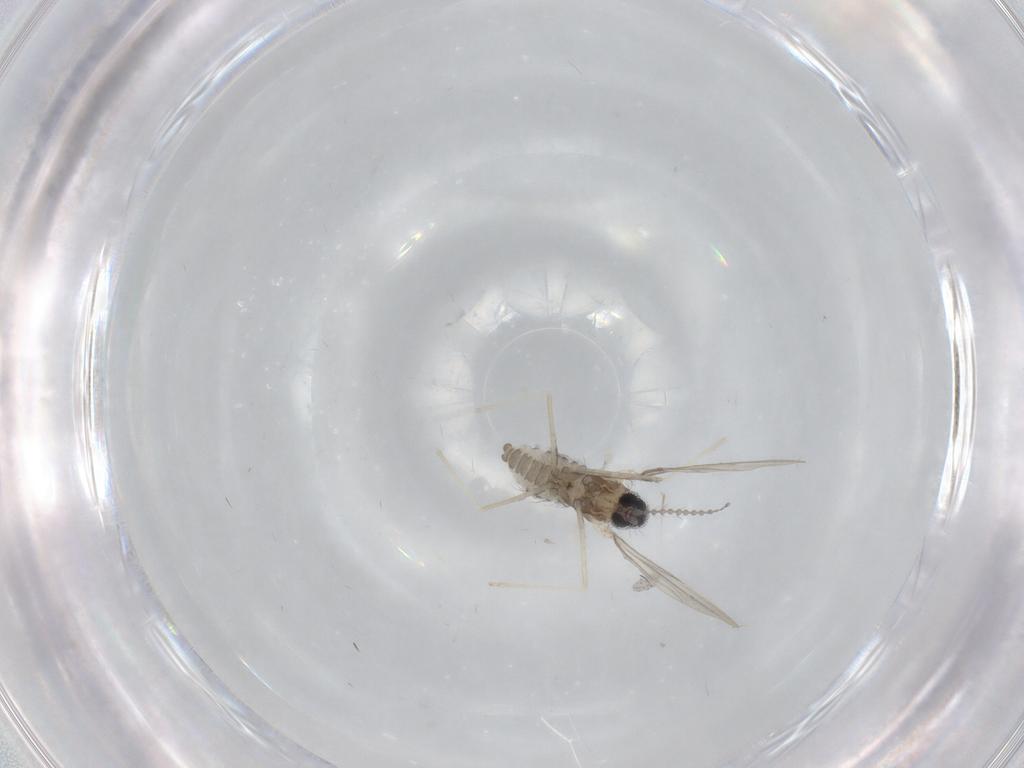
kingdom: Animalia
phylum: Arthropoda
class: Insecta
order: Diptera
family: Cecidomyiidae
